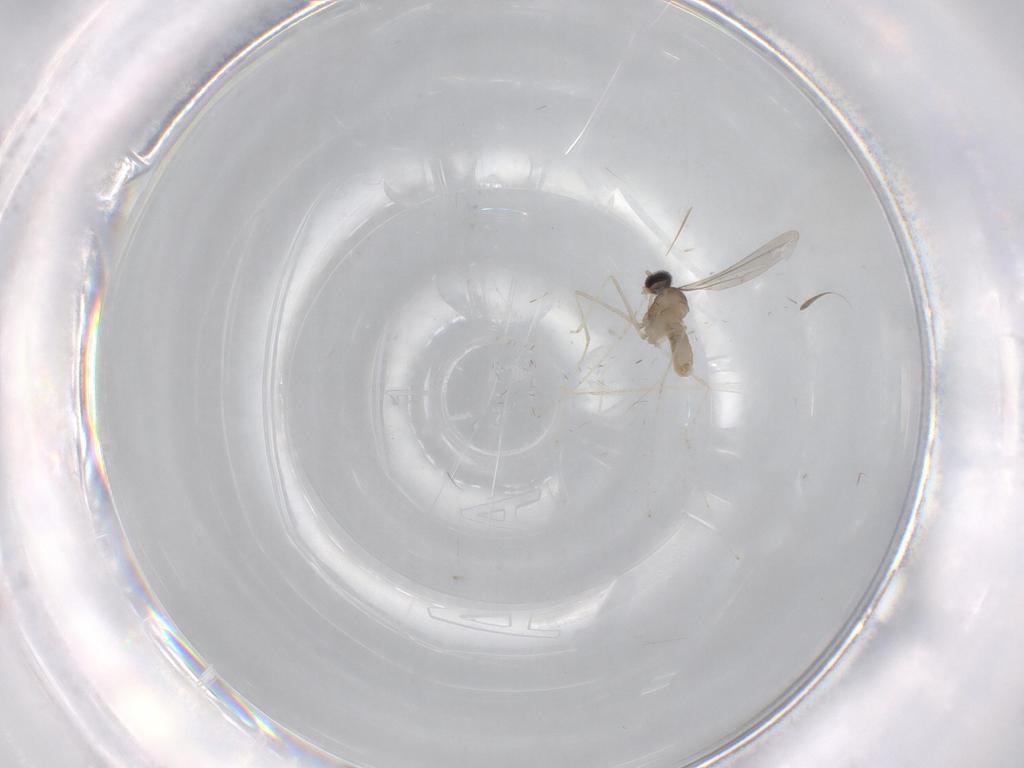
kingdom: Animalia
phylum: Arthropoda
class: Insecta
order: Diptera
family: Cecidomyiidae
